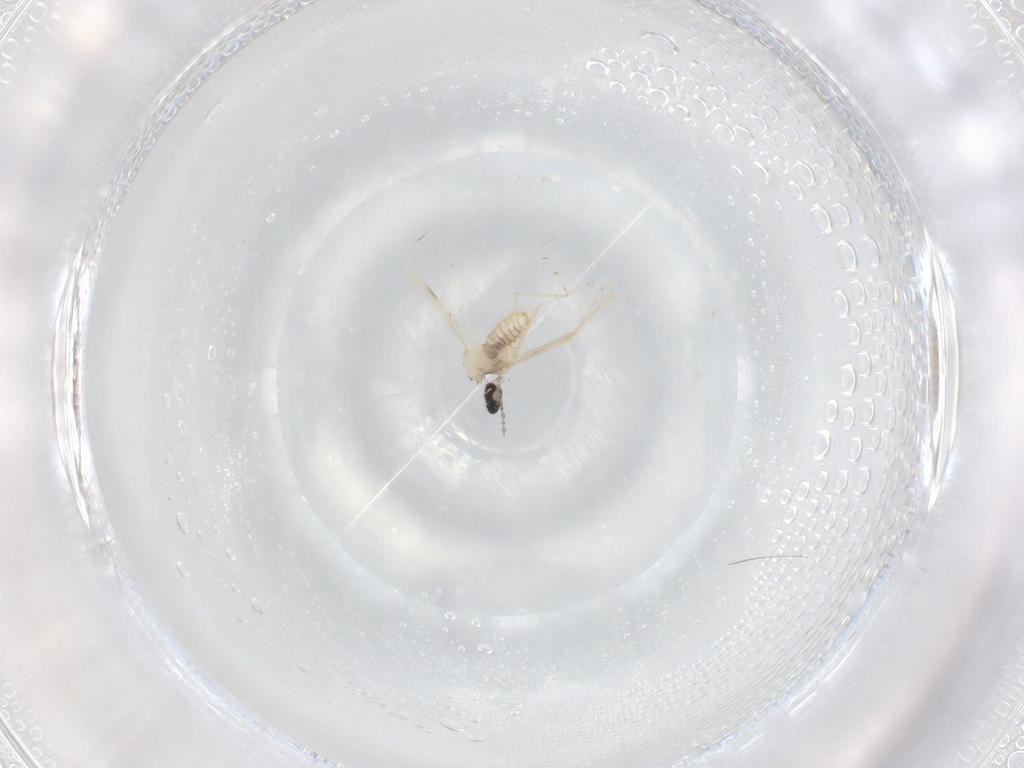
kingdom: Animalia
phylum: Arthropoda
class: Insecta
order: Diptera
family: Cecidomyiidae
